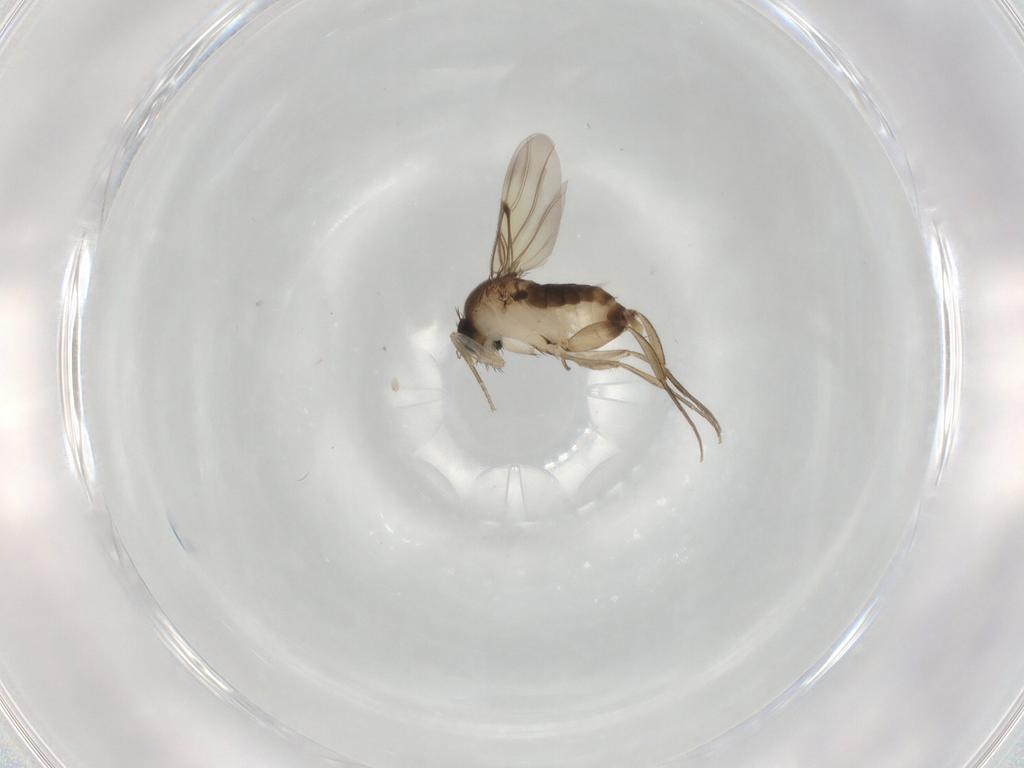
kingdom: Animalia
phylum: Arthropoda
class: Insecta
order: Diptera
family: Phoridae
